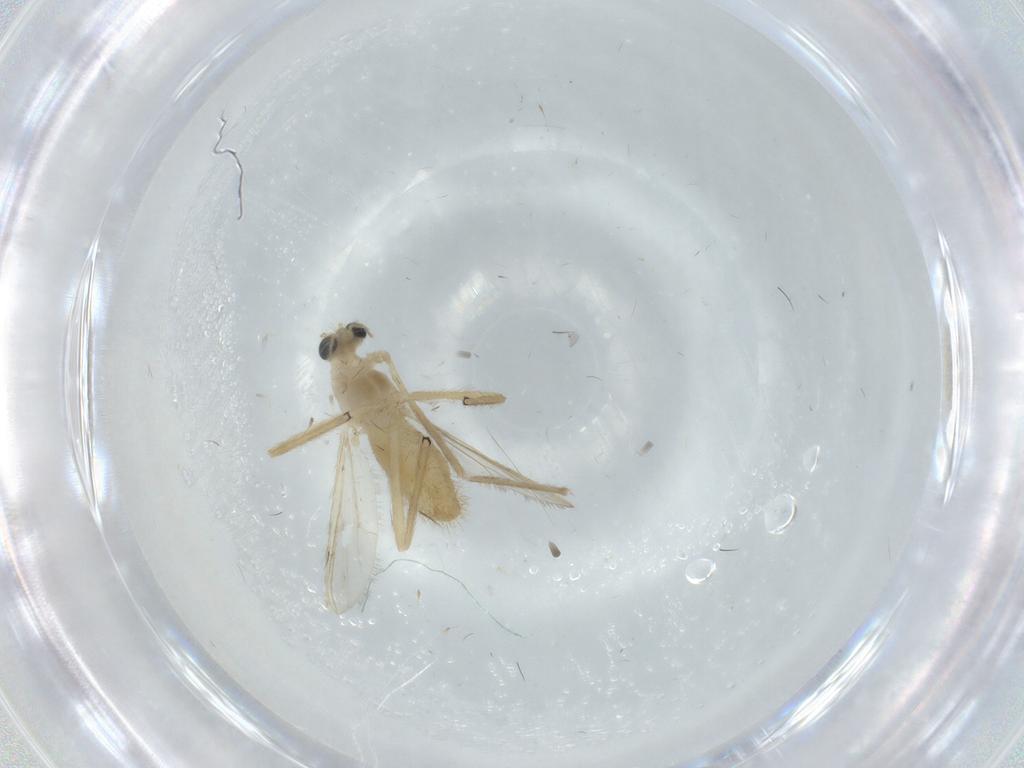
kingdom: Animalia
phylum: Arthropoda
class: Insecta
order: Diptera
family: Chironomidae
